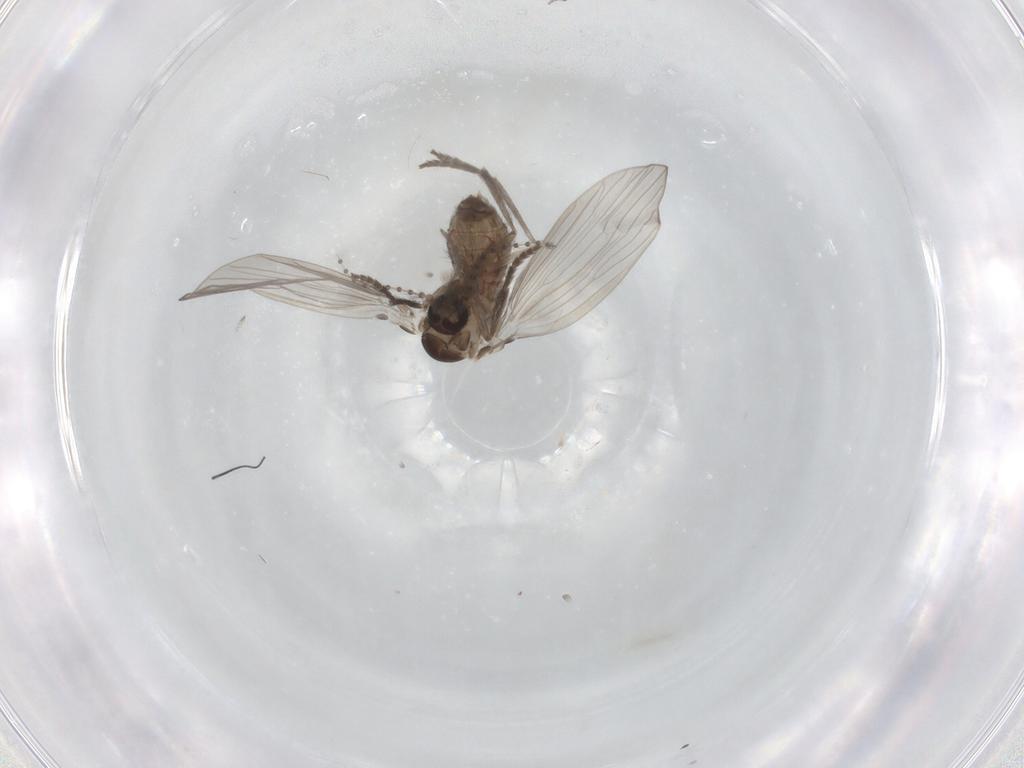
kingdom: Animalia
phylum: Arthropoda
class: Insecta
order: Diptera
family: Psychodidae
